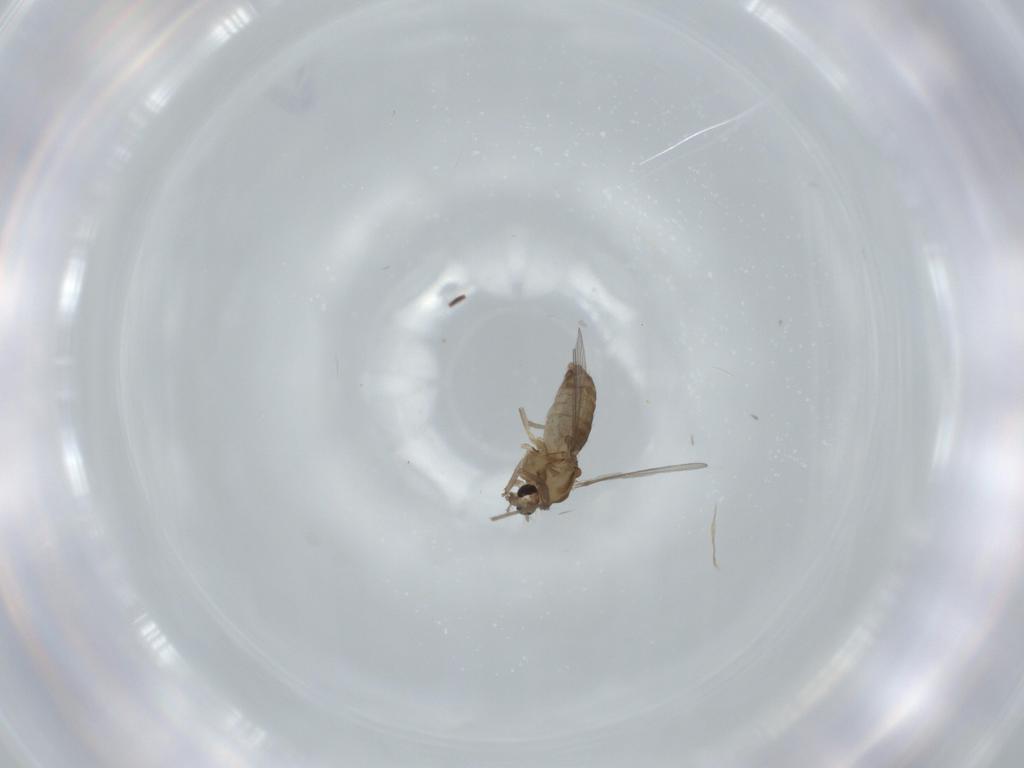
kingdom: Animalia
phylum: Arthropoda
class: Insecta
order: Diptera
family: Chironomidae
